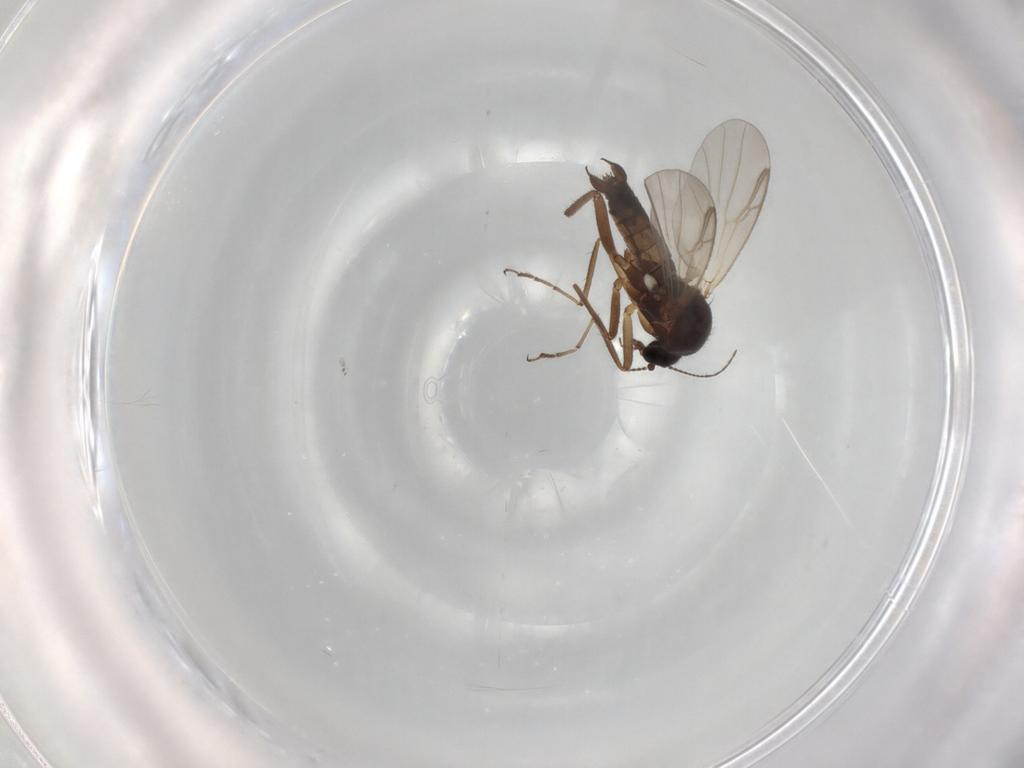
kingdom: Animalia
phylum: Arthropoda
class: Insecta
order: Diptera
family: Ceratopogonidae
